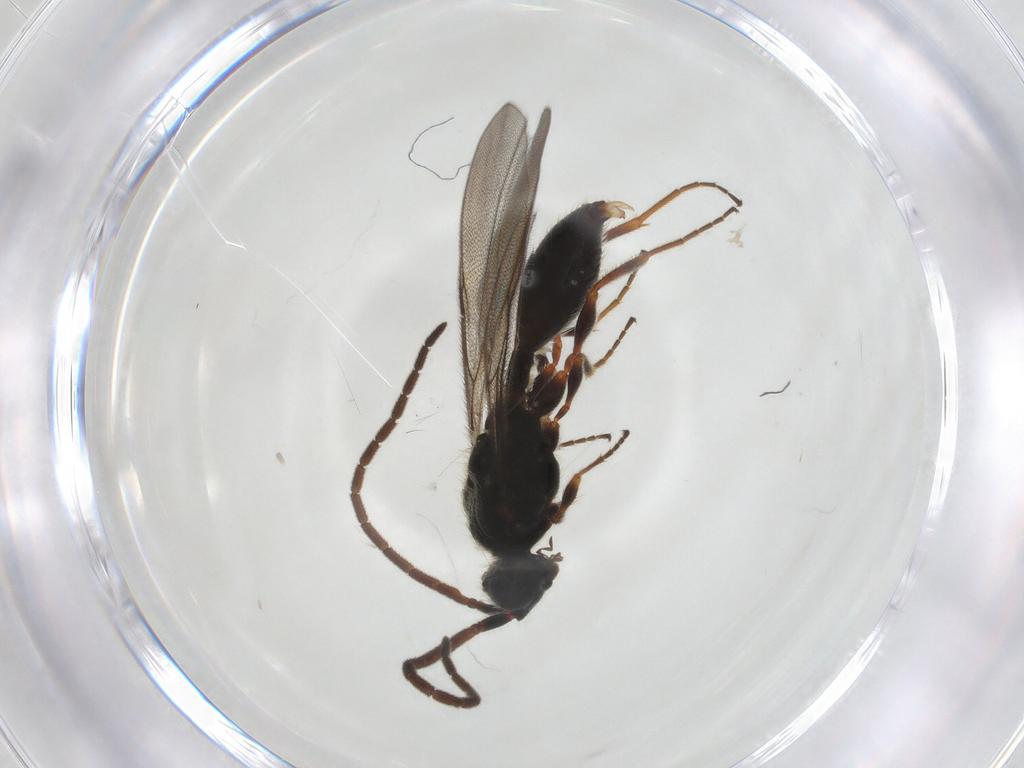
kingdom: Animalia
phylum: Arthropoda
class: Insecta
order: Hymenoptera
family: Diapriidae
